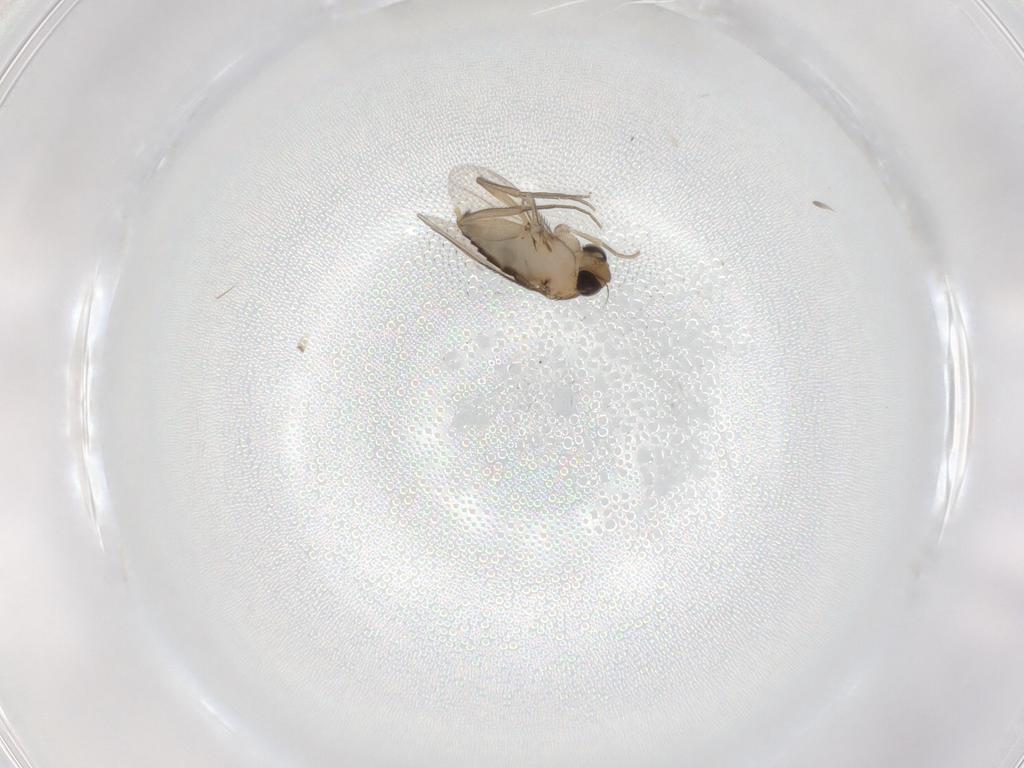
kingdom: Animalia
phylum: Arthropoda
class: Insecta
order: Diptera
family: Phoridae
